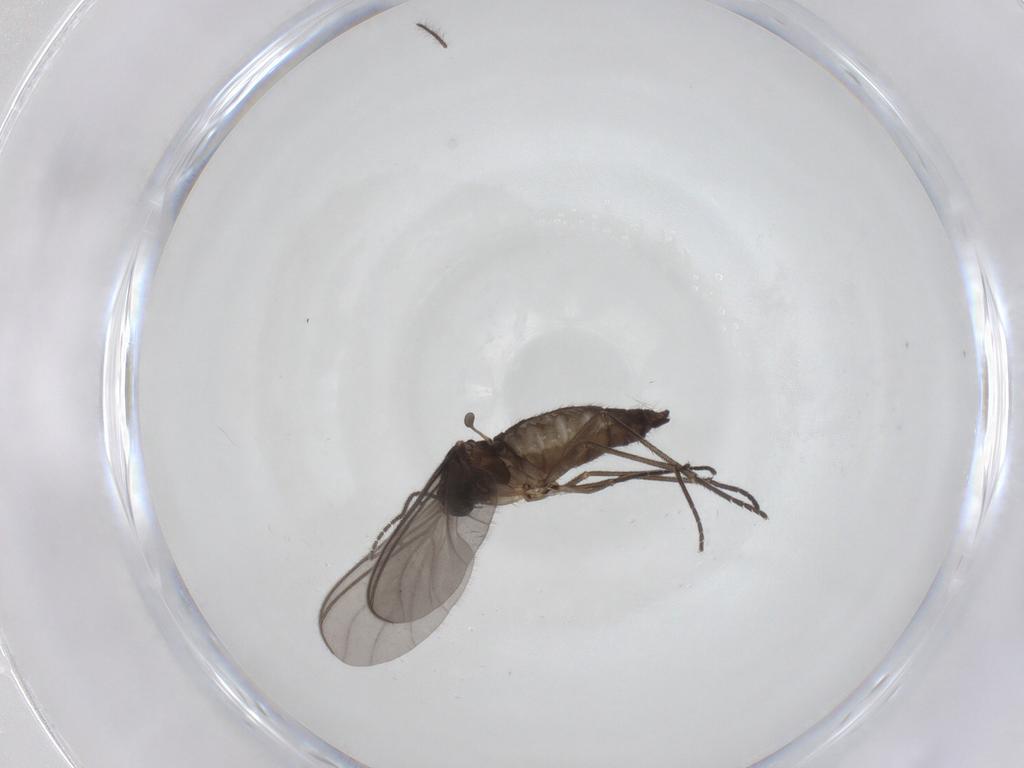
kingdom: Animalia
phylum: Arthropoda
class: Insecta
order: Diptera
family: Sciaridae
